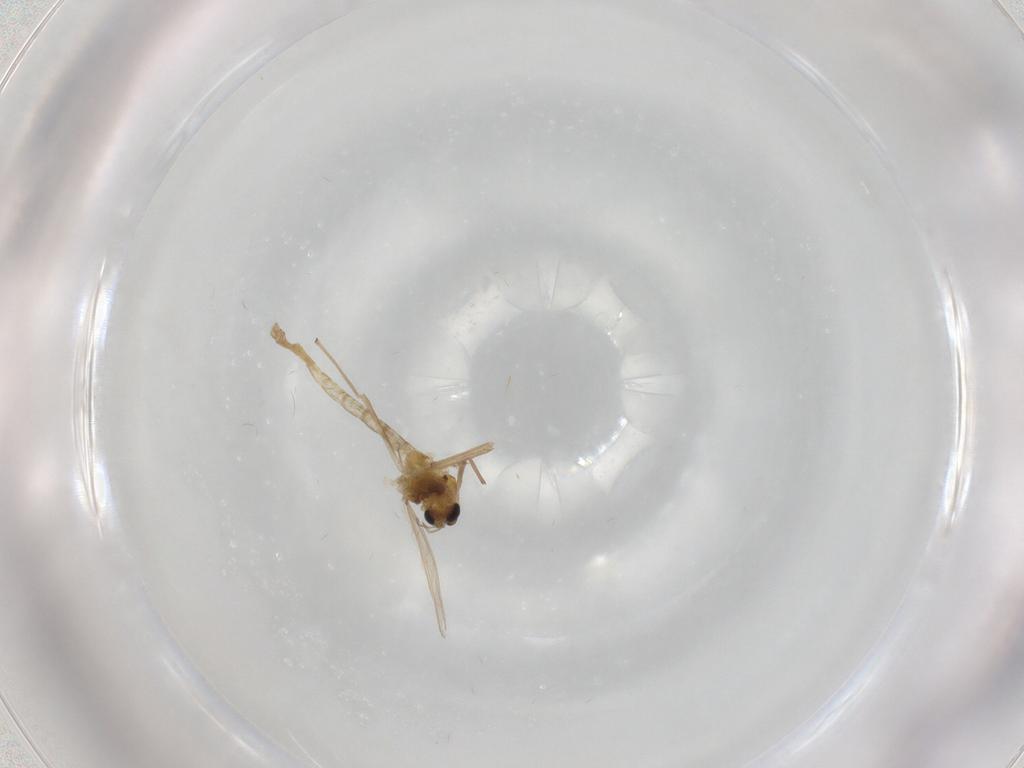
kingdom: Animalia
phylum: Arthropoda
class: Insecta
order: Diptera
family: Chironomidae
